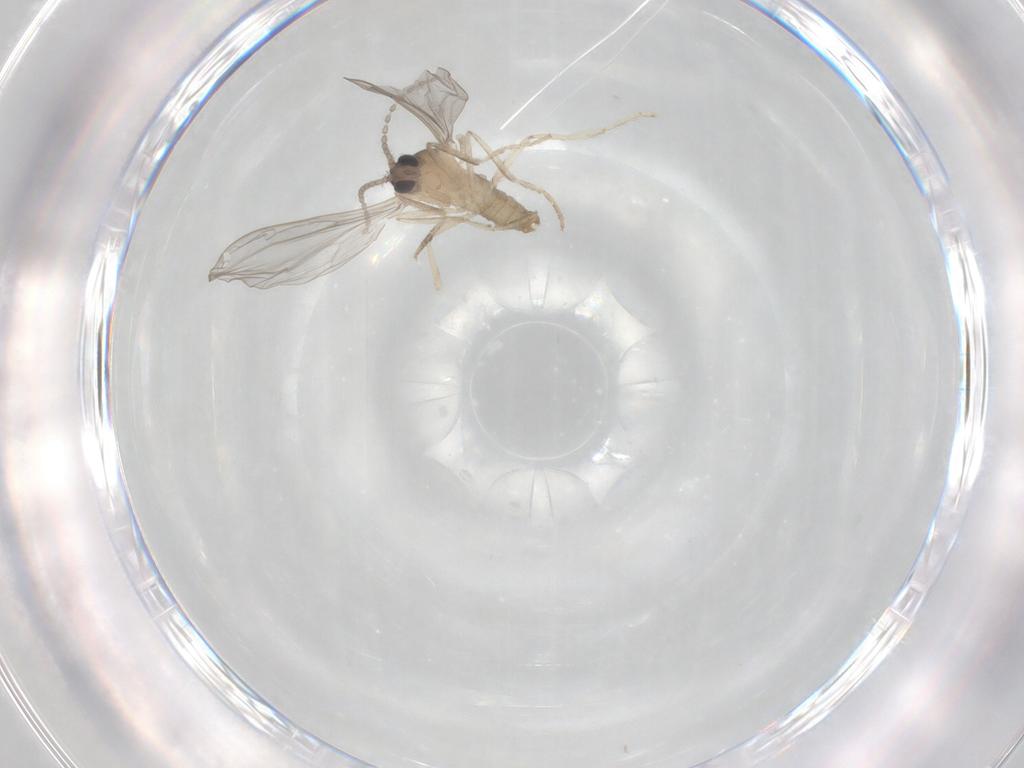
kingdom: Animalia
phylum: Arthropoda
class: Insecta
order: Diptera
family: Cecidomyiidae
